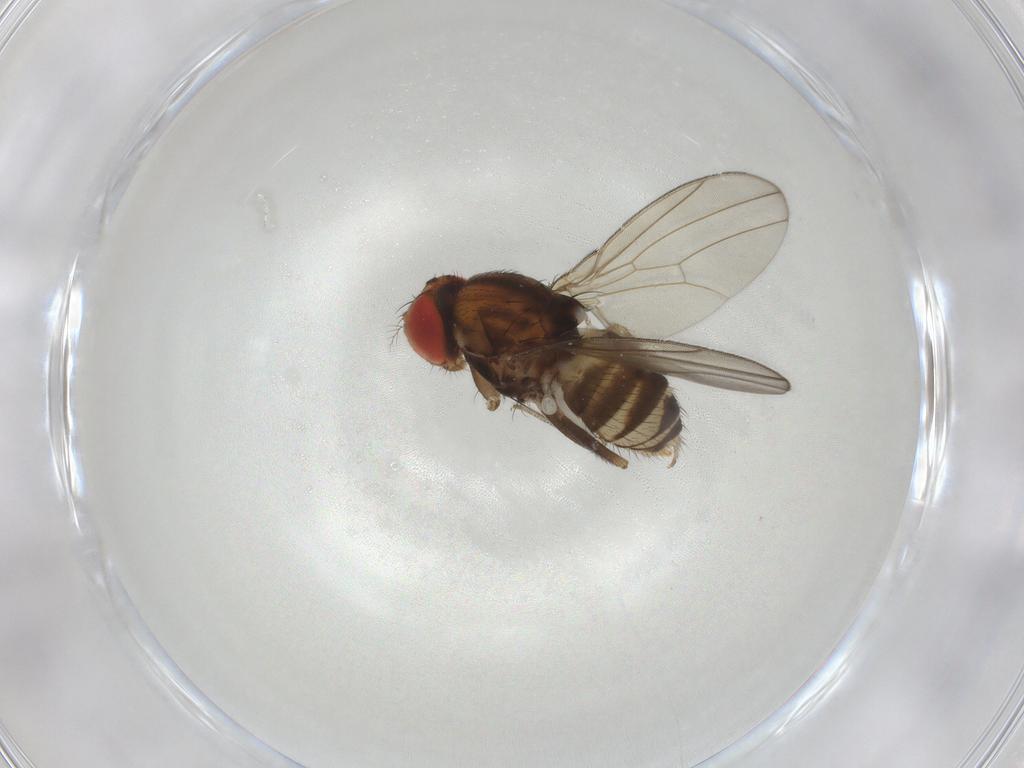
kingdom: Animalia
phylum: Arthropoda
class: Insecta
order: Diptera
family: Drosophilidae
